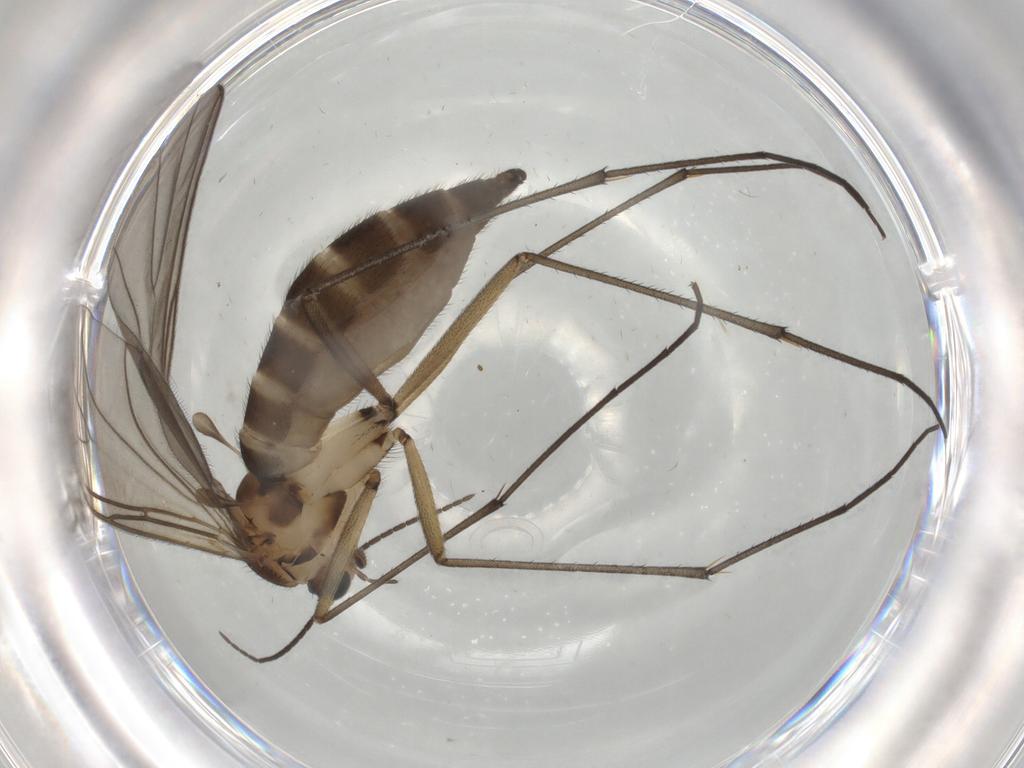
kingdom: Animalia
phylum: Arthropoda
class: Insecta
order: Diptera
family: Sciaridae
